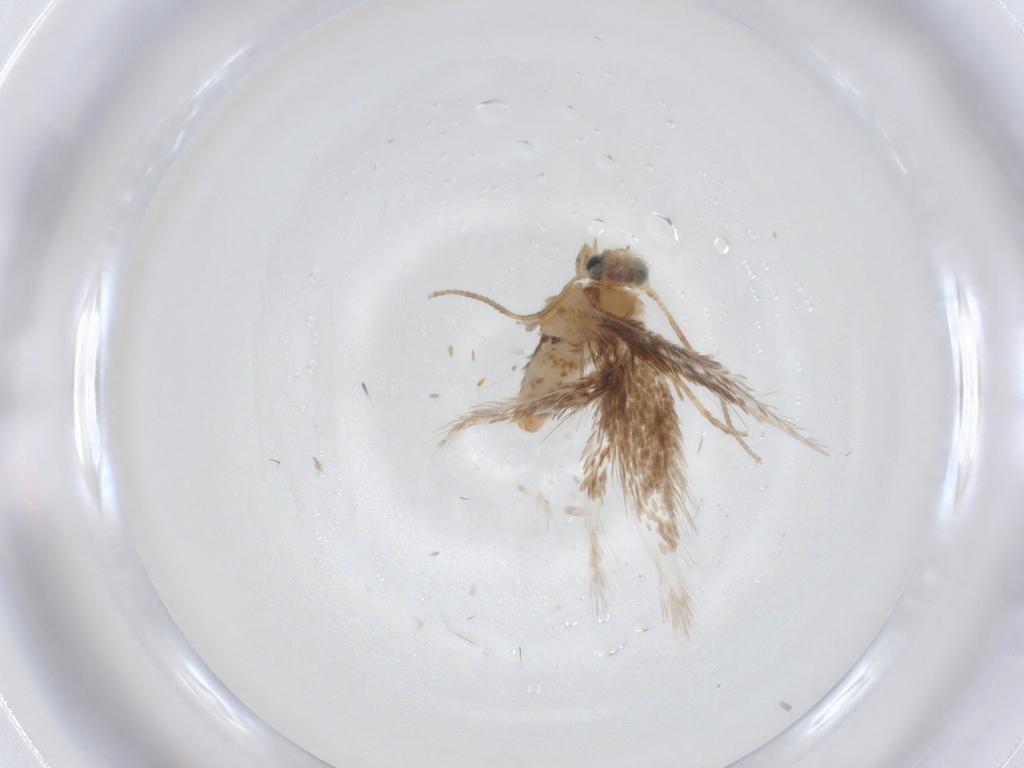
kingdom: Animalia
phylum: Arthropoda
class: Insecta
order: Lepidoptera
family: Nepticulidae
